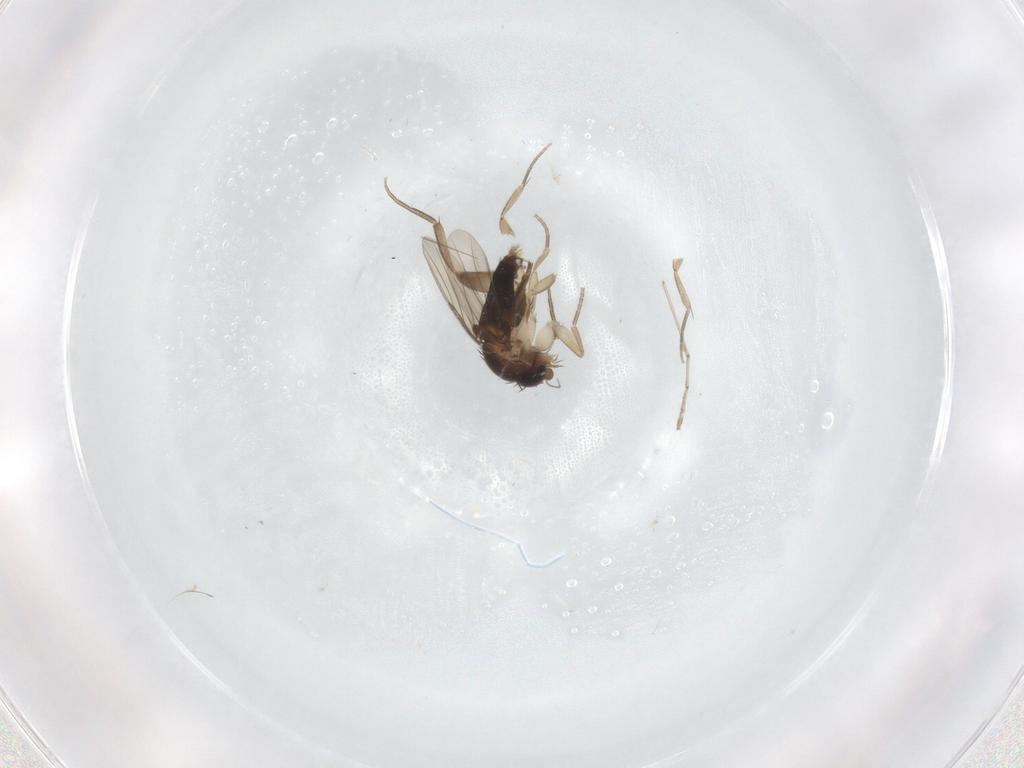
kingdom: Animalia
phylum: Arthropoda
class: Insecta
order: Diptera
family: Phoridae
